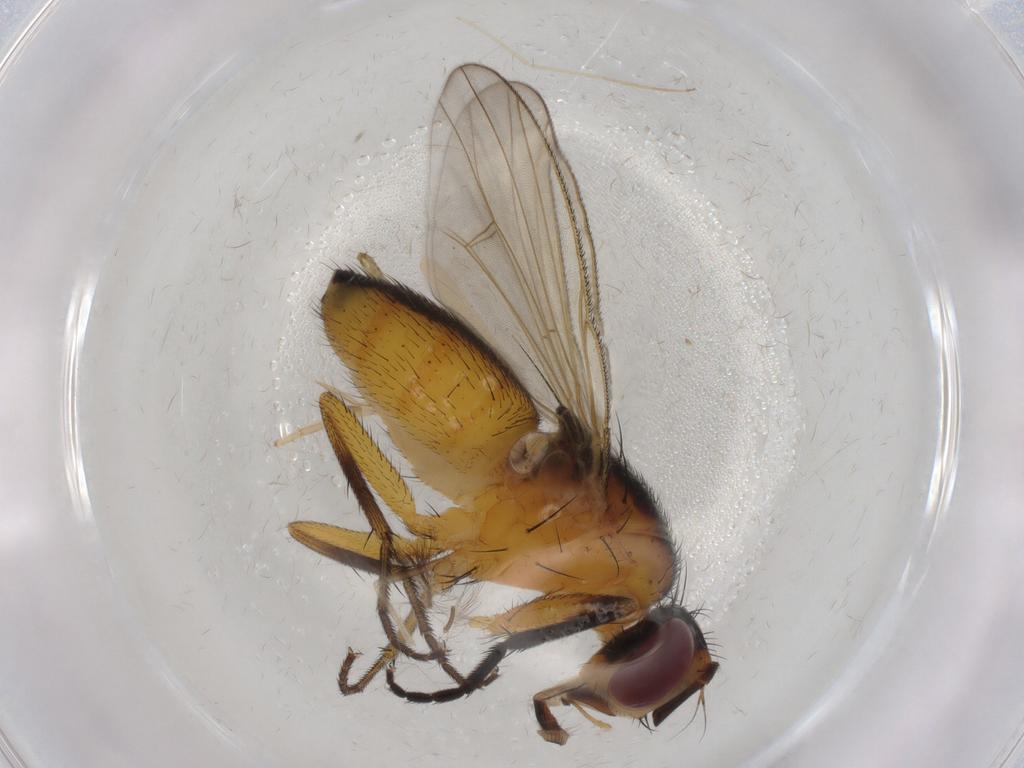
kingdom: Animalia
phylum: Arthropoda
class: Insecta
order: Diptera
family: Muscidae
